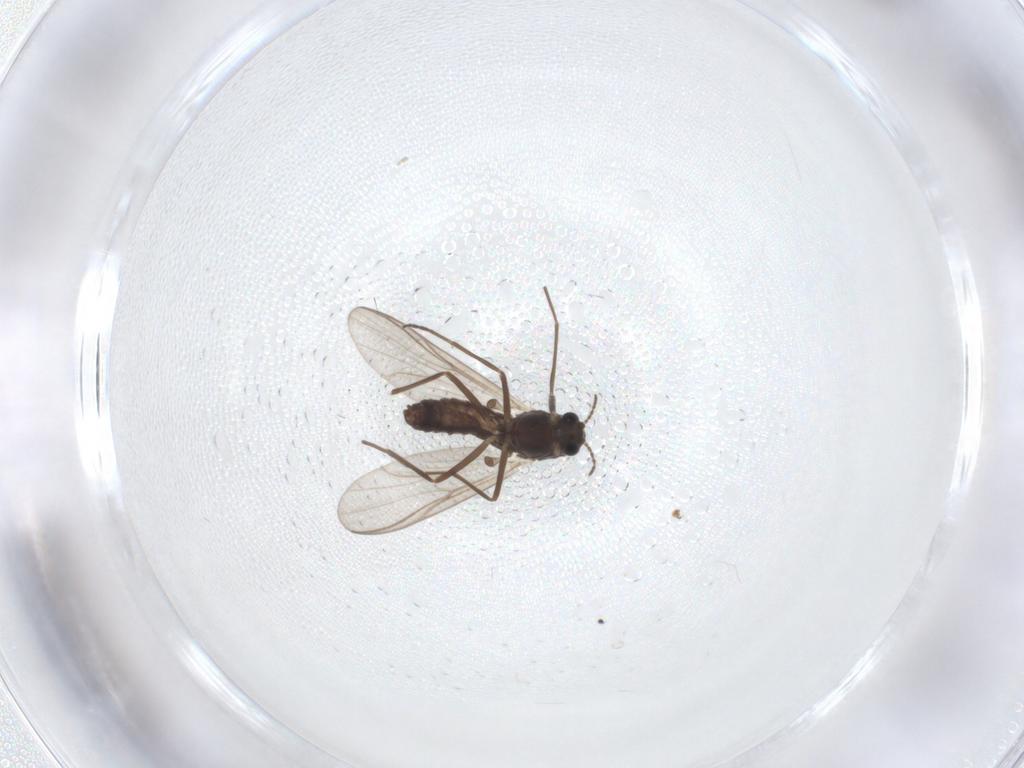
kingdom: Animalia
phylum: Arthropoda
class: Insecta
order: Diptera
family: Chironomidae
